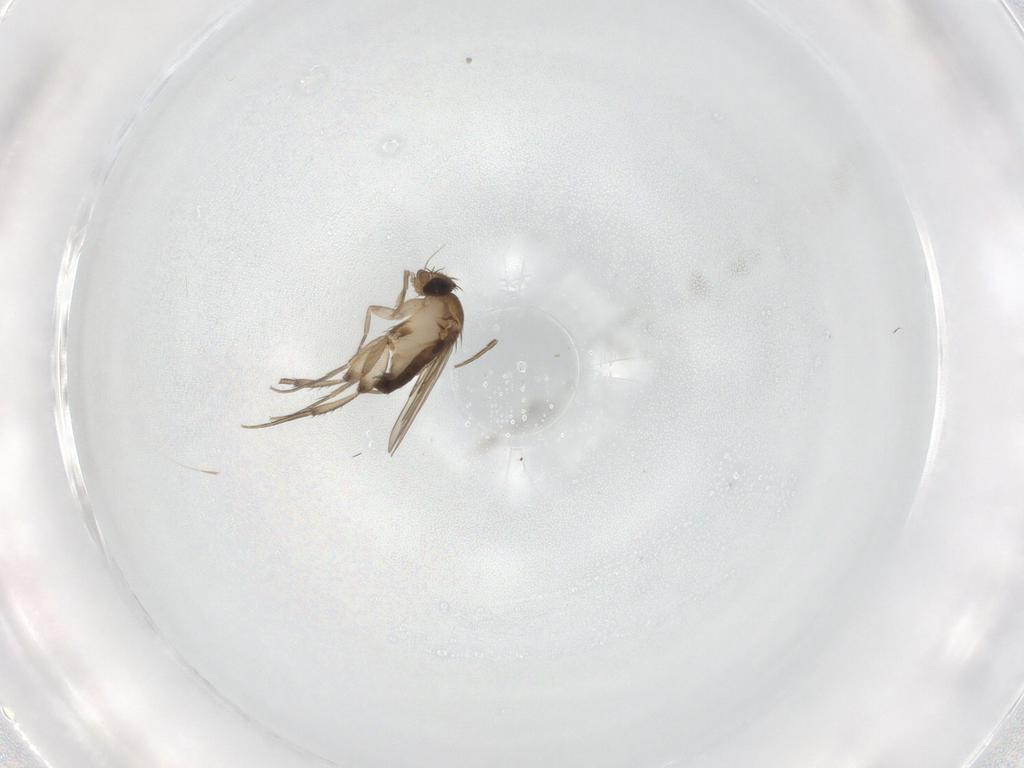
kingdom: Animalia
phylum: Arthropoda
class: Insecta
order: Diptera
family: Phoridae
